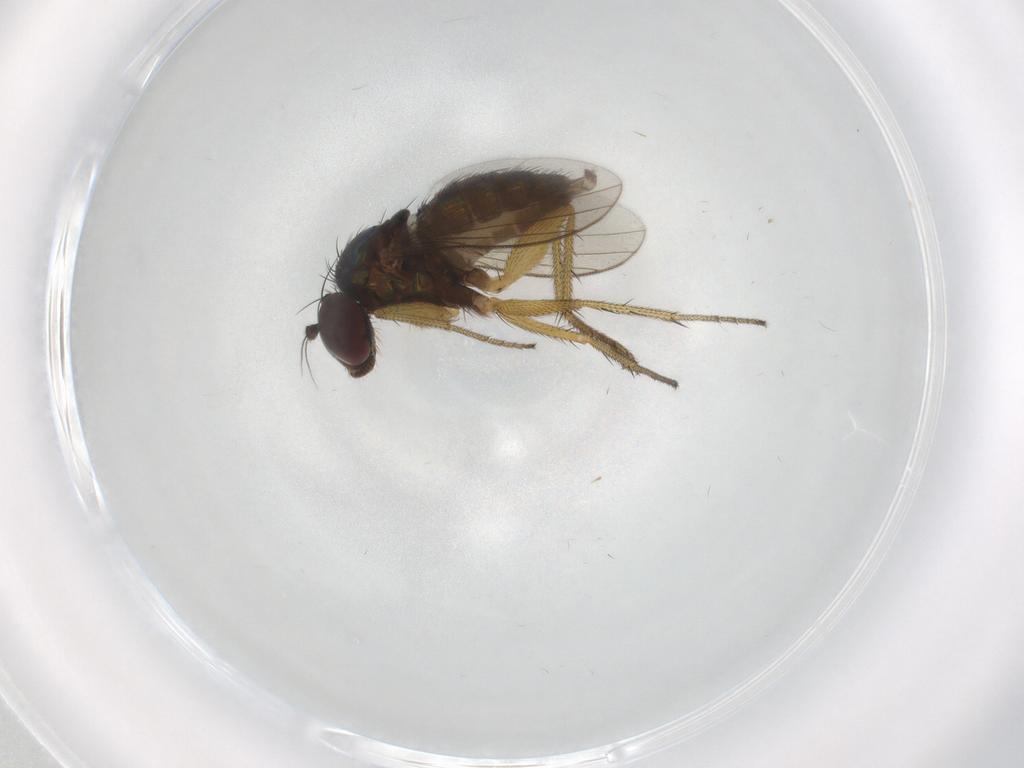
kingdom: Animalia
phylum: Arthropoda
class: Insecta
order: Diptera
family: Dolichopodidae
